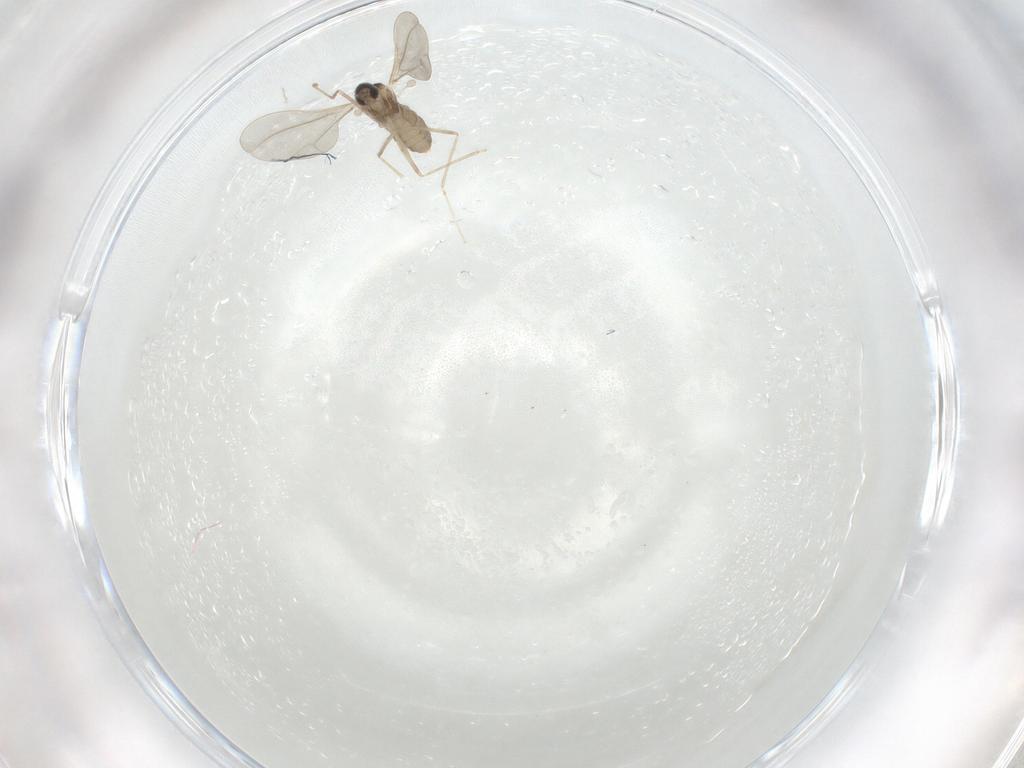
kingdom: Animalia
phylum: Arthropoda
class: Insecta
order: Diptera
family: Cecidomyiidae
